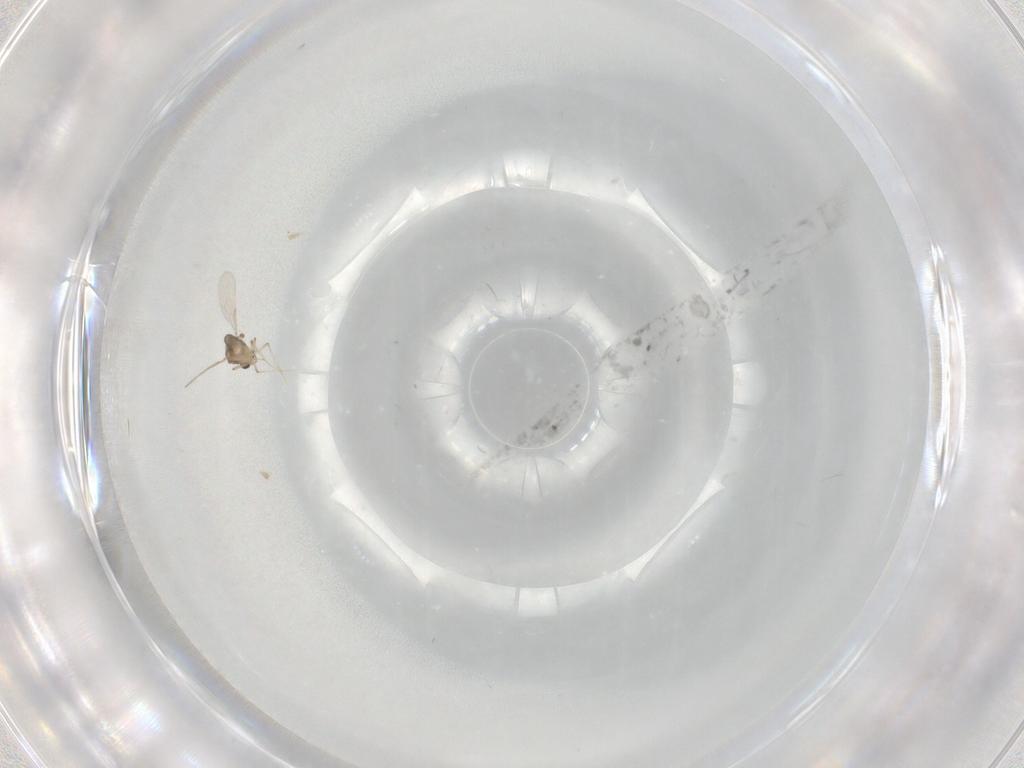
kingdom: Animalia
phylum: Arthropoda
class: Insecta
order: Diptera
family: Ceratopogonidae
